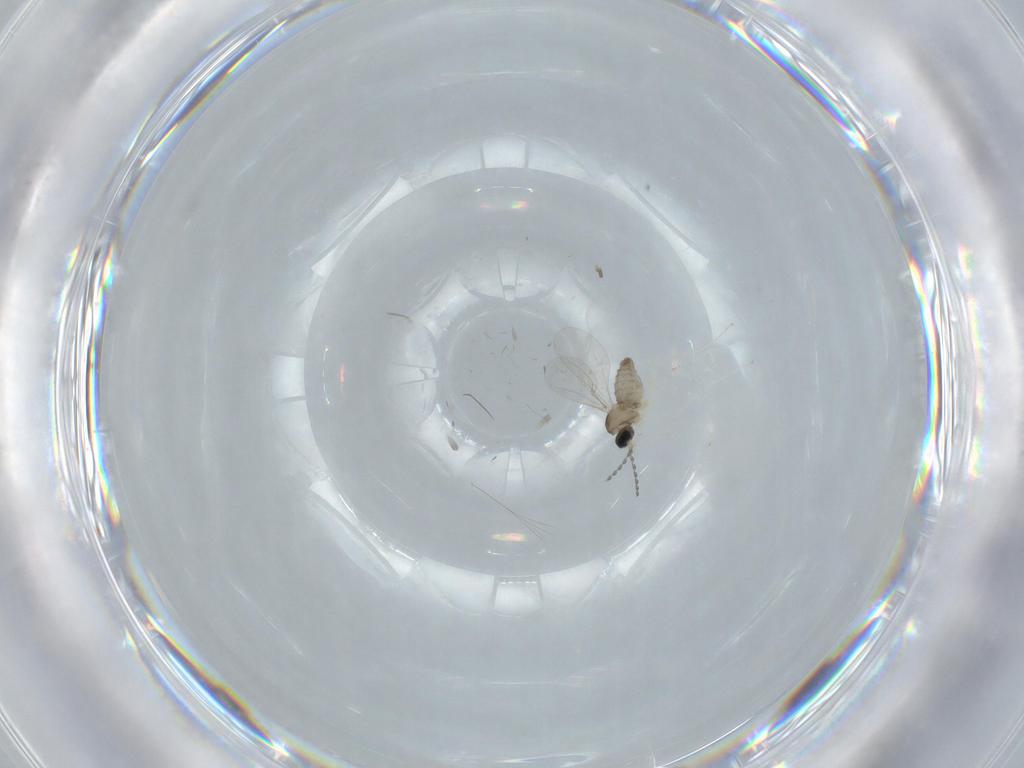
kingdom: Animalia
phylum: Arthropoda
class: Insecta
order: Diptera
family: Cecidomyiidae
